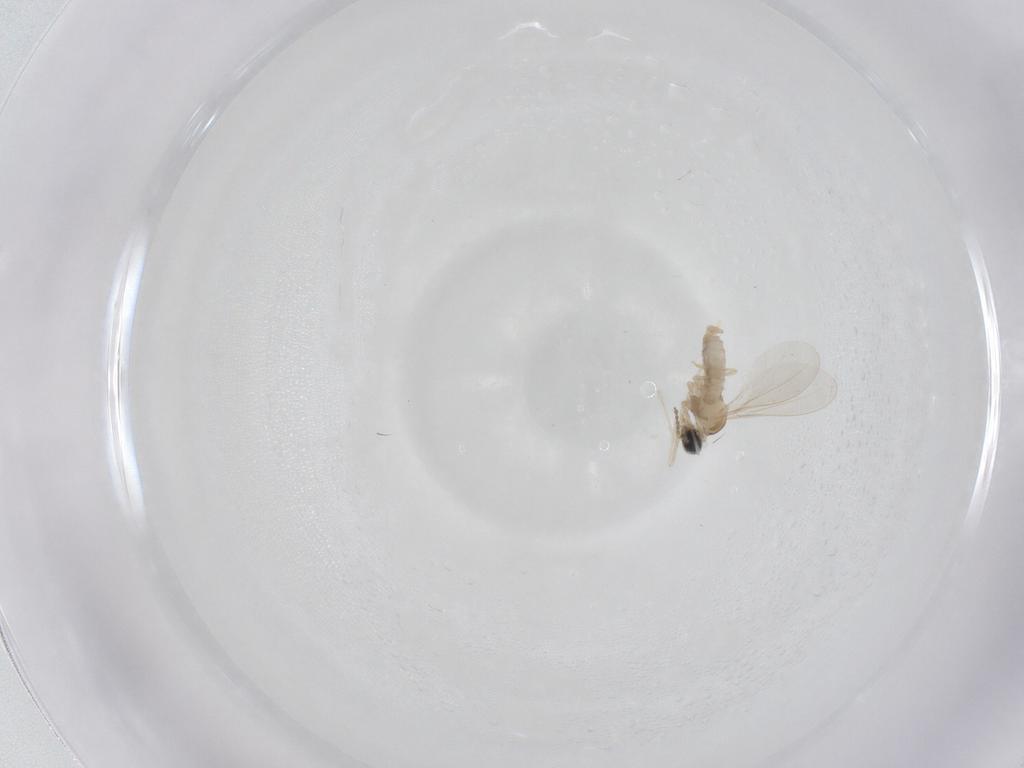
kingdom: Animalia
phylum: Arthropoda
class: Insecta
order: Diptera
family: Cecidomyiidae
